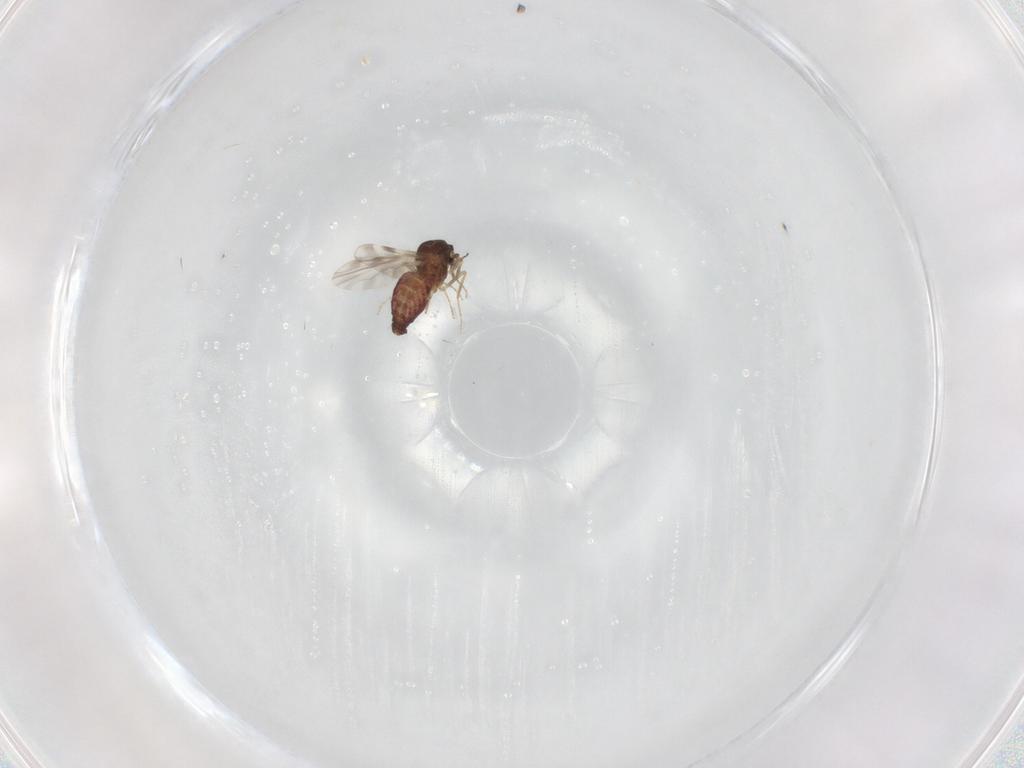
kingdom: Animalia
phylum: Arthropoda
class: Insecta
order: Diptera
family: Ceratopogonidae
